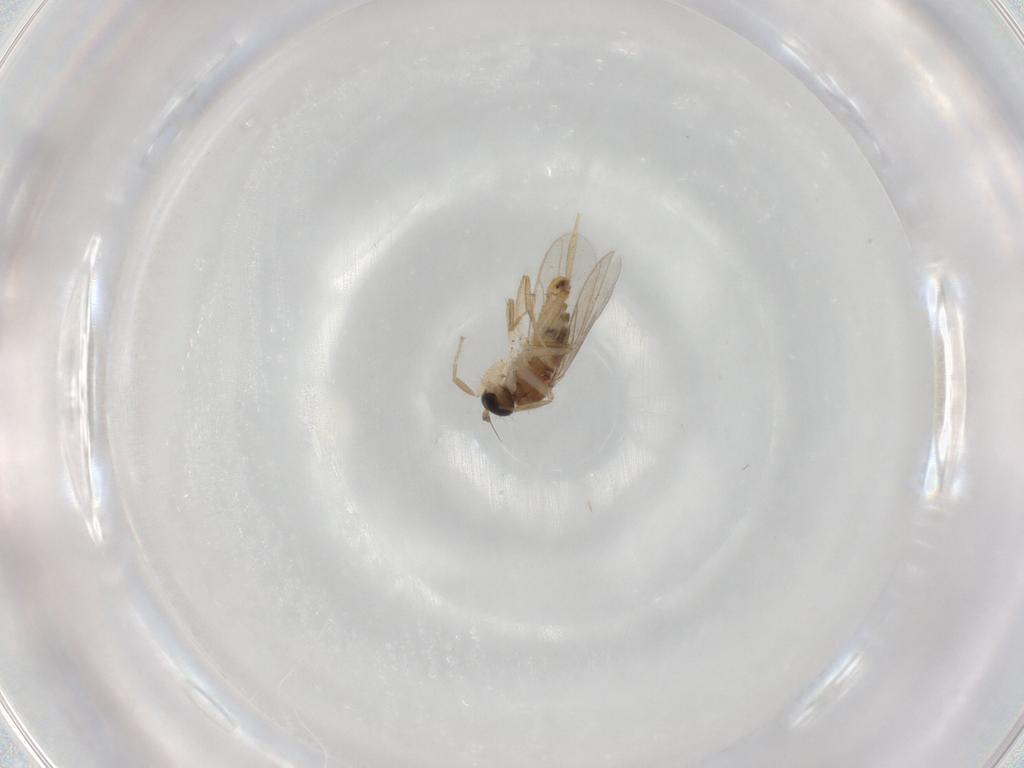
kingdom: Animalia
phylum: Arthropoda
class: Insecta
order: Diptera
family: Hybotidae
